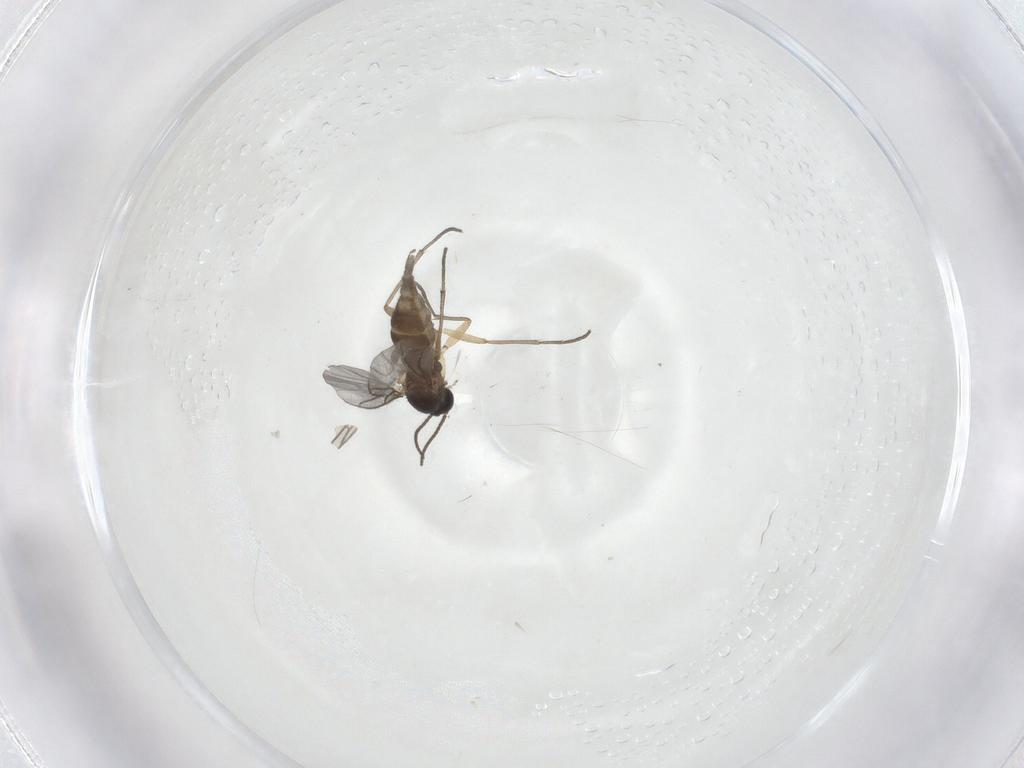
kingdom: Animalia
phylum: Arthropoda
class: Insecta
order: Diptera
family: Sciaridae
